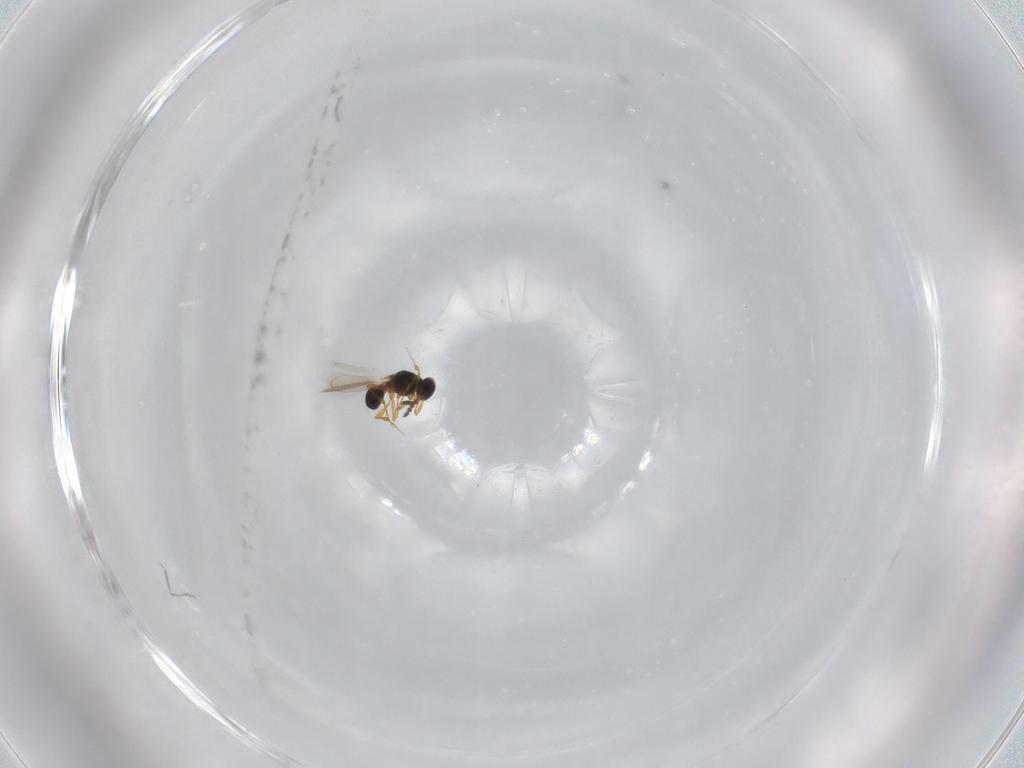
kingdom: Animalia
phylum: Arthropoda
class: Insecta
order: Hymenoptera
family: Platygastridae
